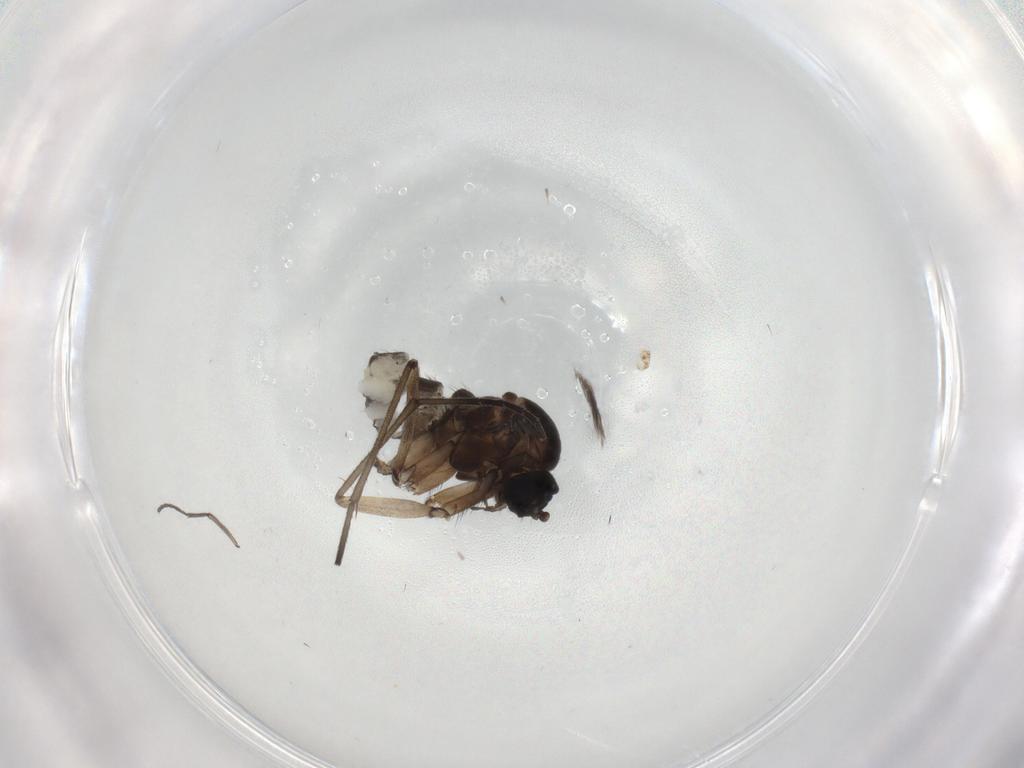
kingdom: Animalia
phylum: Arthropoda
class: Insecta
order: Diptera
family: Sciaridae
